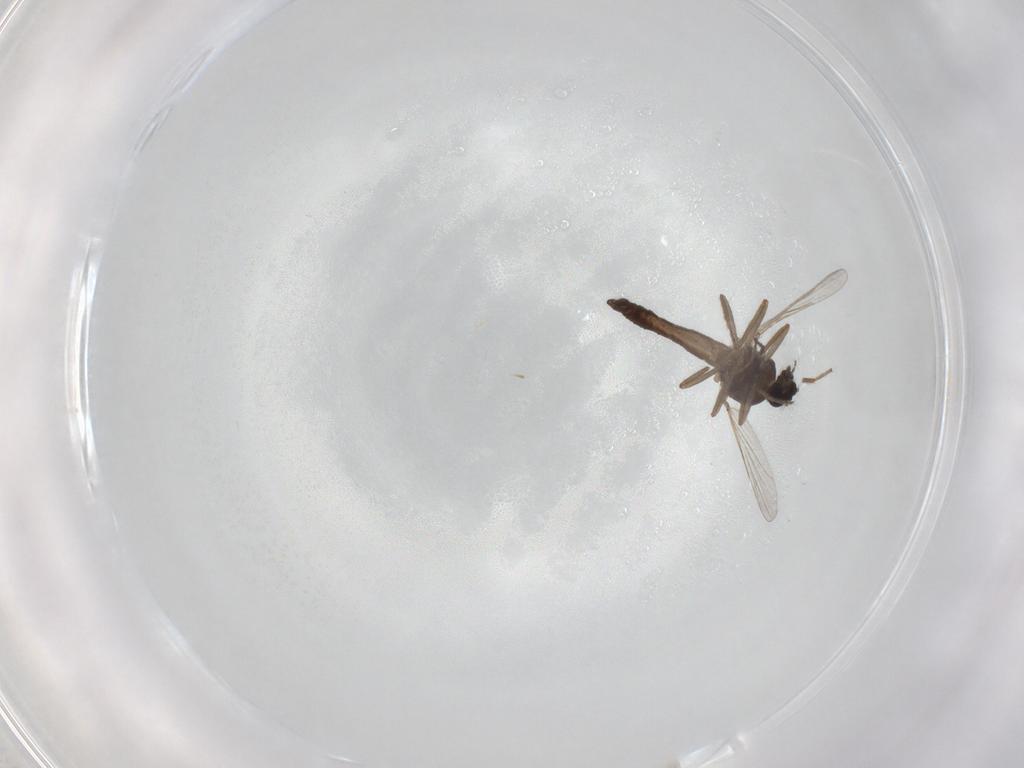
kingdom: Animalia
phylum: Arthropoda
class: Insecta
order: Diptera
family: Ceratopogonidae
